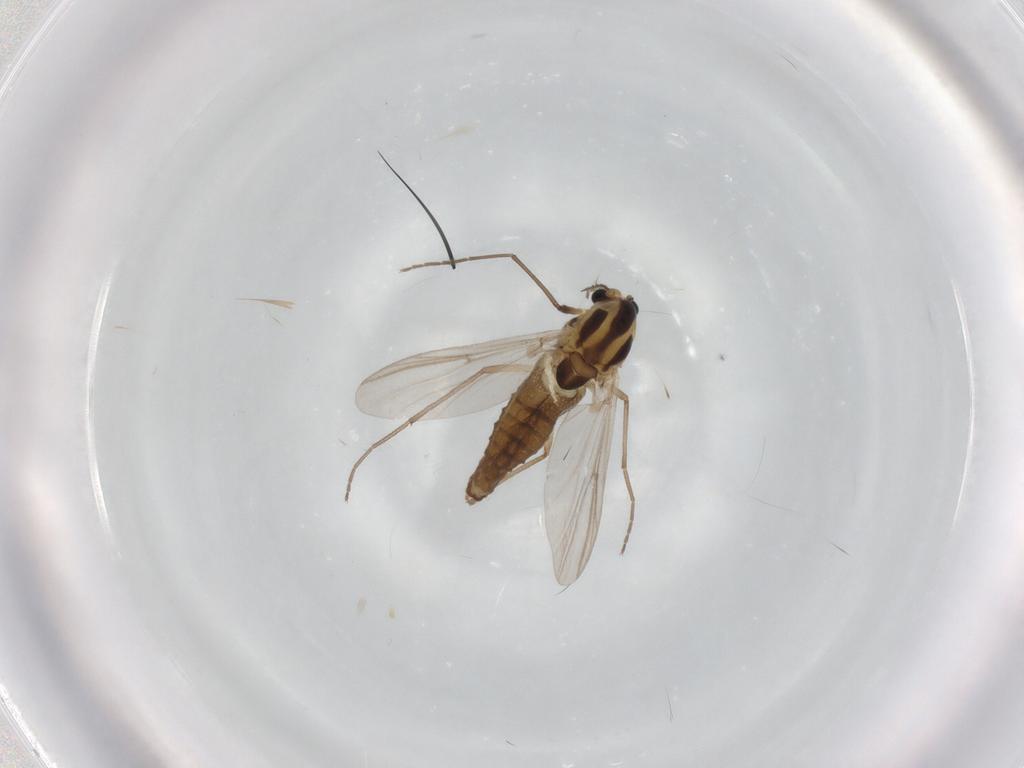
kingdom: Animalia
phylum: Arthropoda
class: Insecta
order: Diptera
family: Chironomidae
